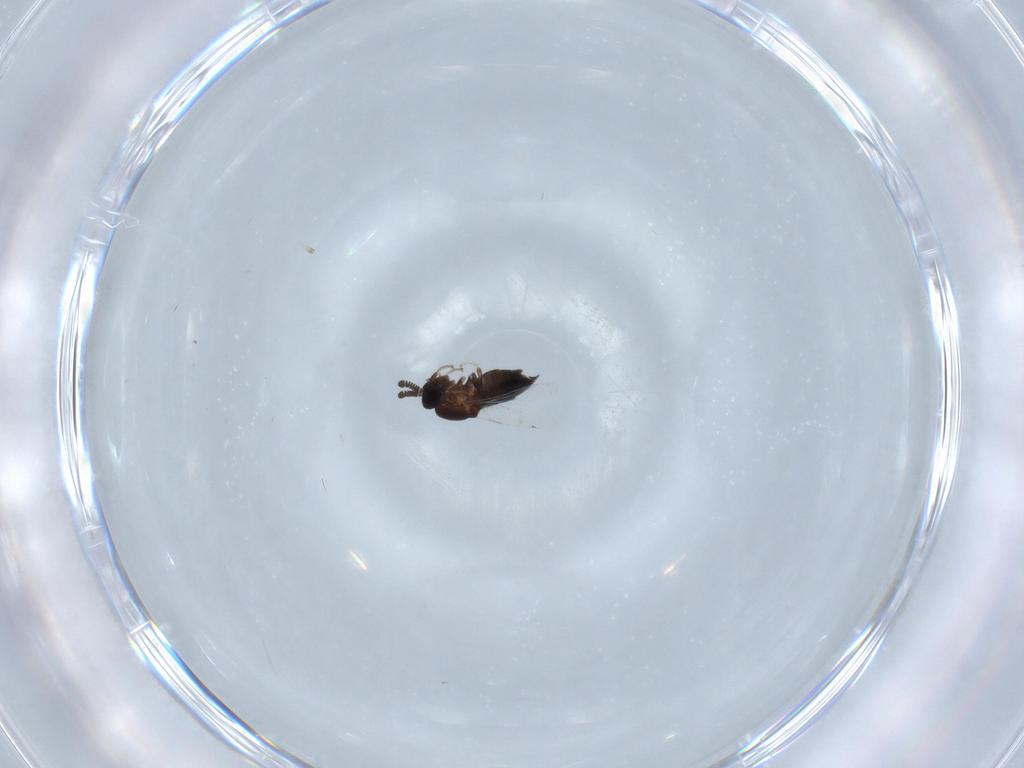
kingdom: Animalia
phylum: Arthropoda
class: Insecta
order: Diptera
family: Scatopsidae
